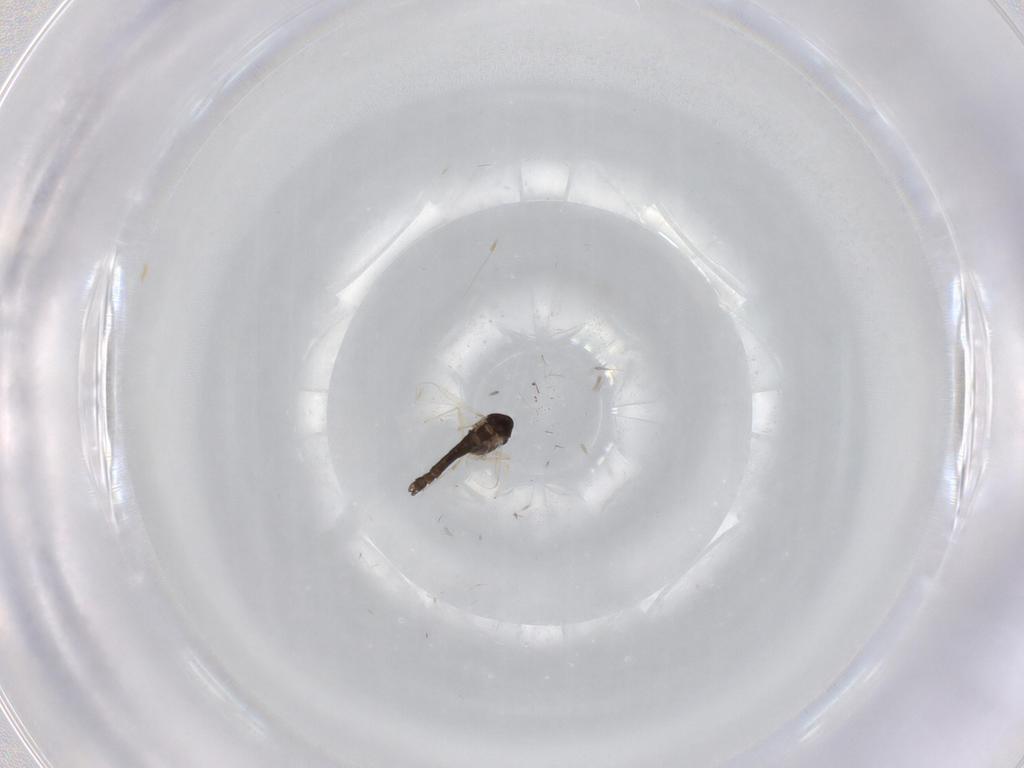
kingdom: Animalia
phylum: Arthropoda
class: Insecta
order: Diptera
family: Chironomidae
